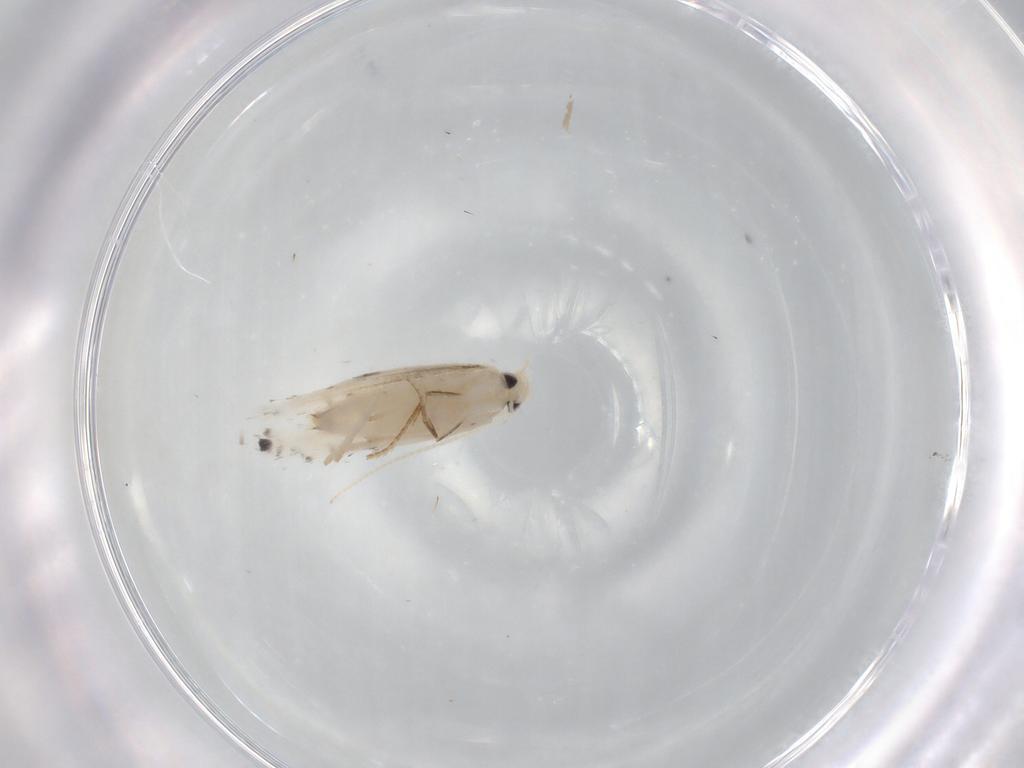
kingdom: Animalia
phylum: Arthropoda
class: Insecta
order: Lepidoptera
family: Gracillariidae
